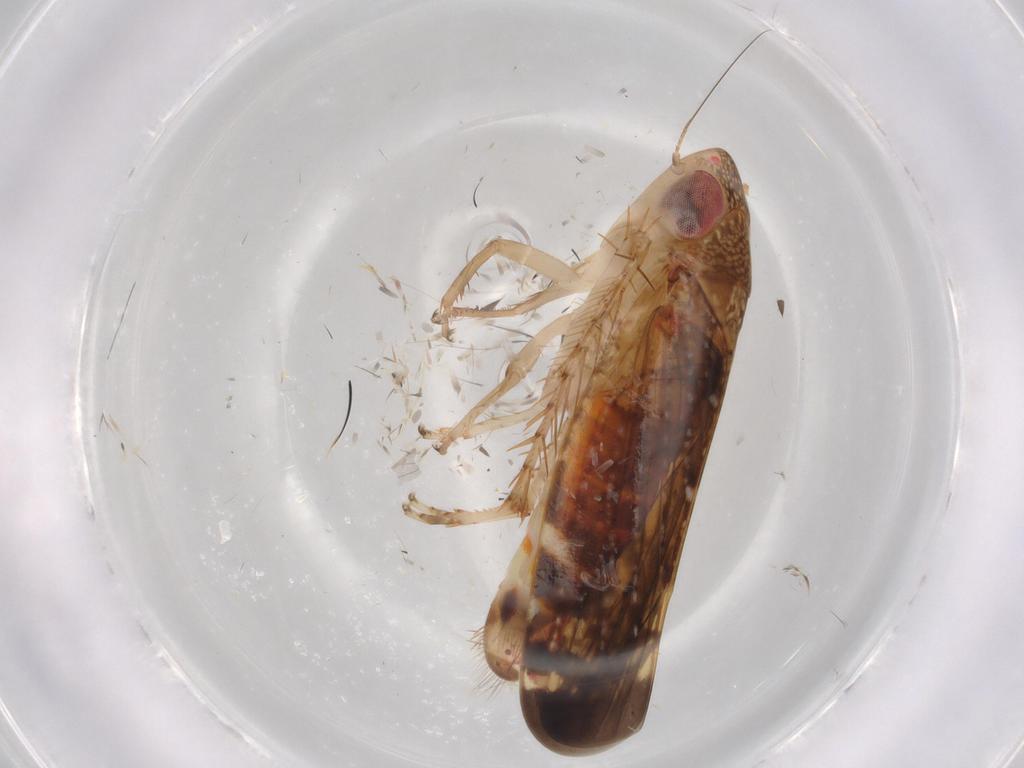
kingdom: Animalia
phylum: Arthropoda
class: Insecta
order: Hemiptera
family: Cicadellidae
